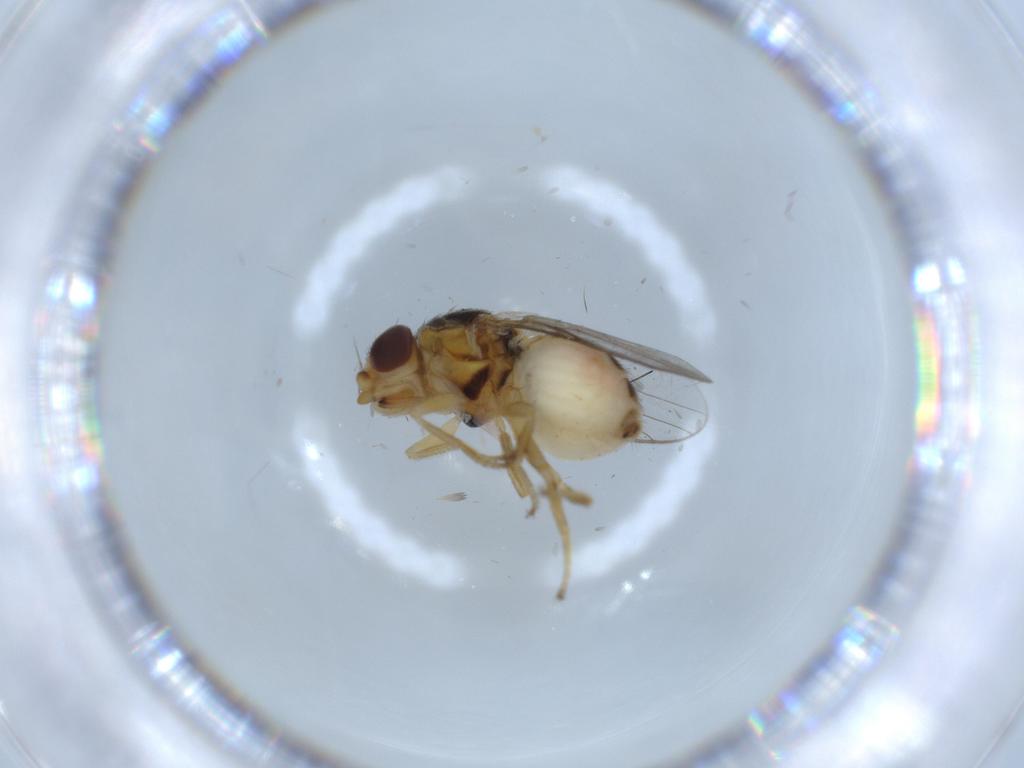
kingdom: Animalia
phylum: Arthropoda
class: Insecta
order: Diptera
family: Chloropidae
